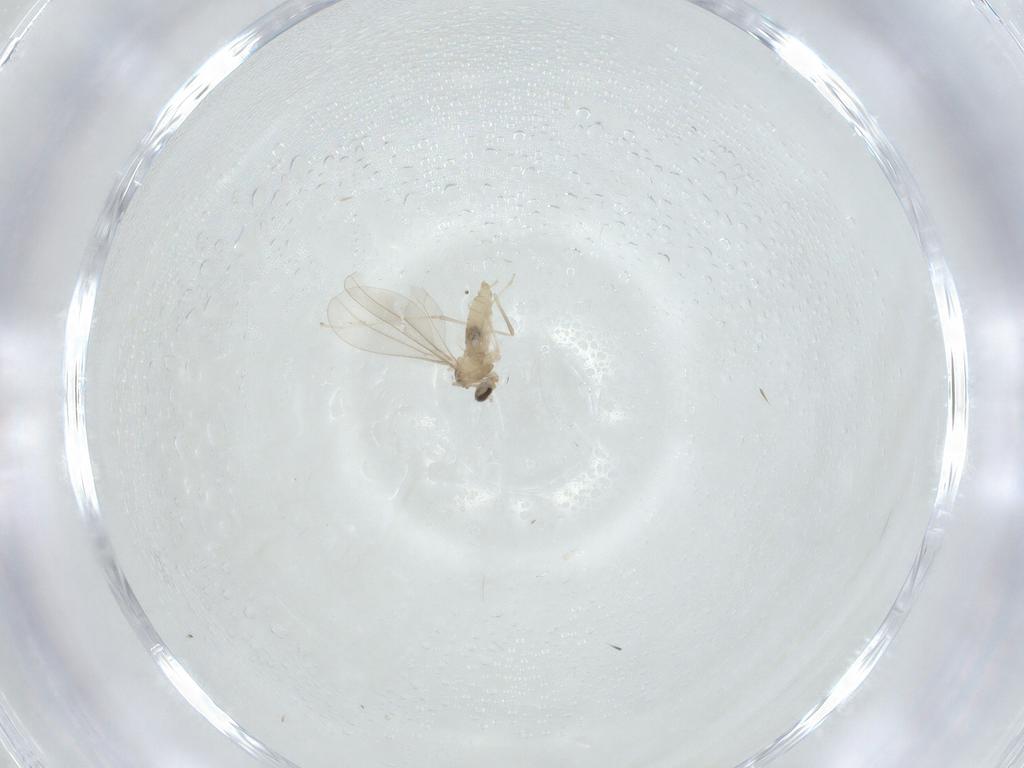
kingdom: Animalia
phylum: Arthropoda
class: Insecta
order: Diptera
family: Cecidomyiidae
